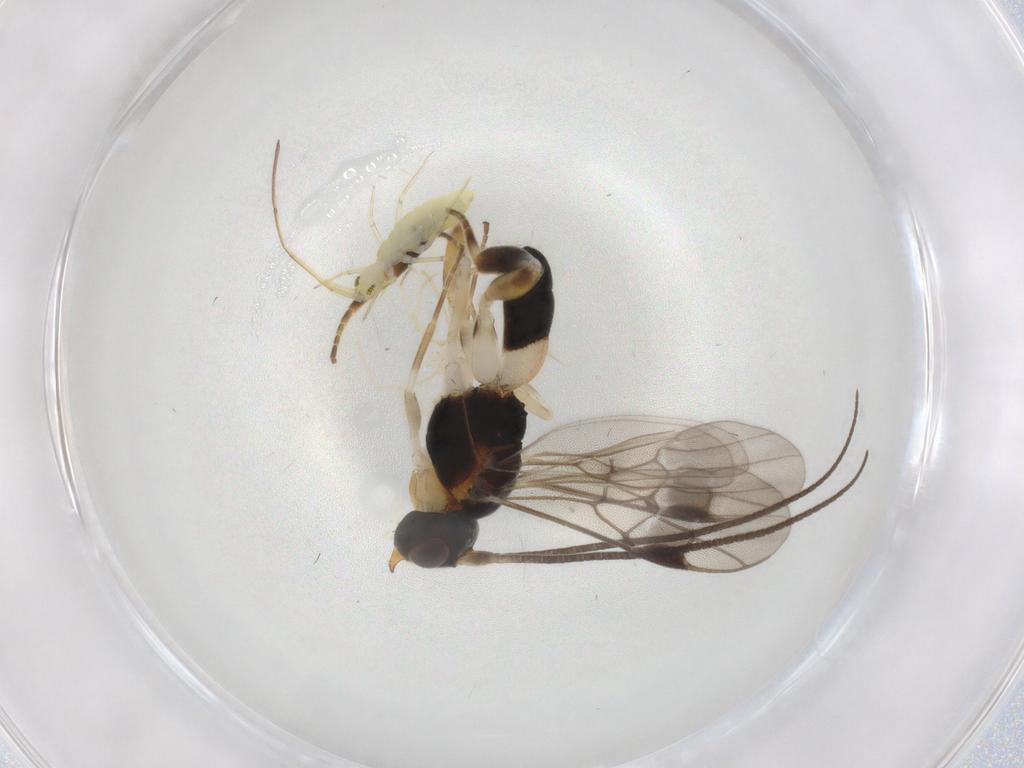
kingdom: Animalia
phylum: Arthropoda
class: Insecta
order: Hymenoptera
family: Braconidae
